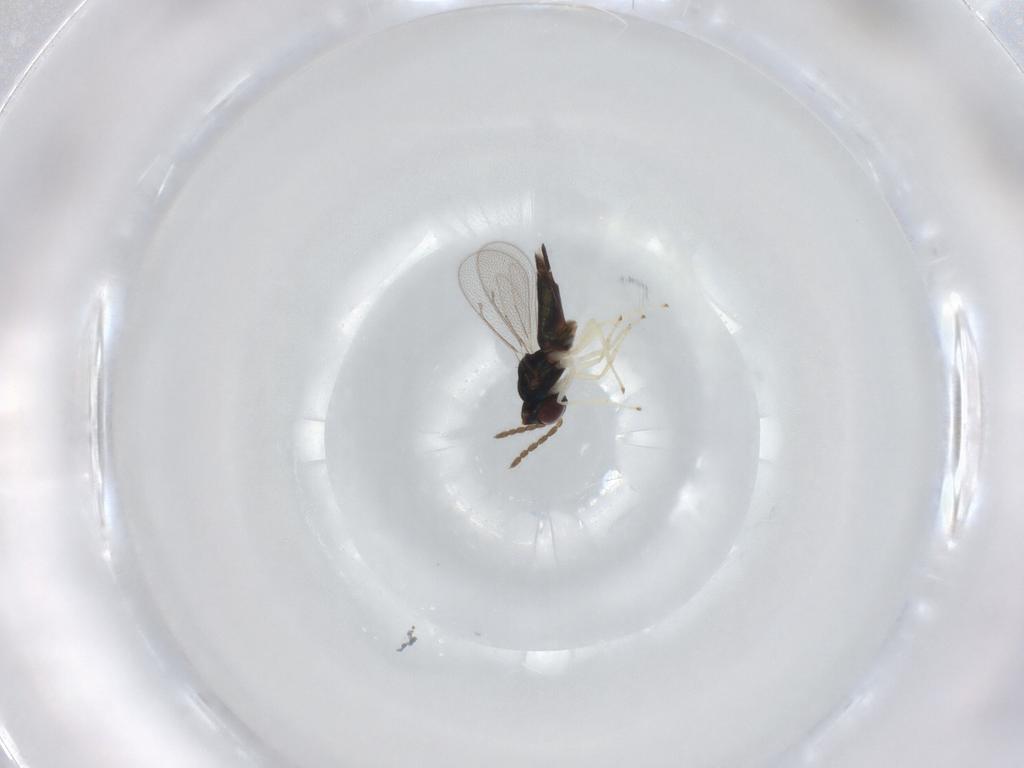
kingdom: Animalia
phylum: Arthropoda
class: Insecta
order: Hymenoptera
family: Eulophidae
